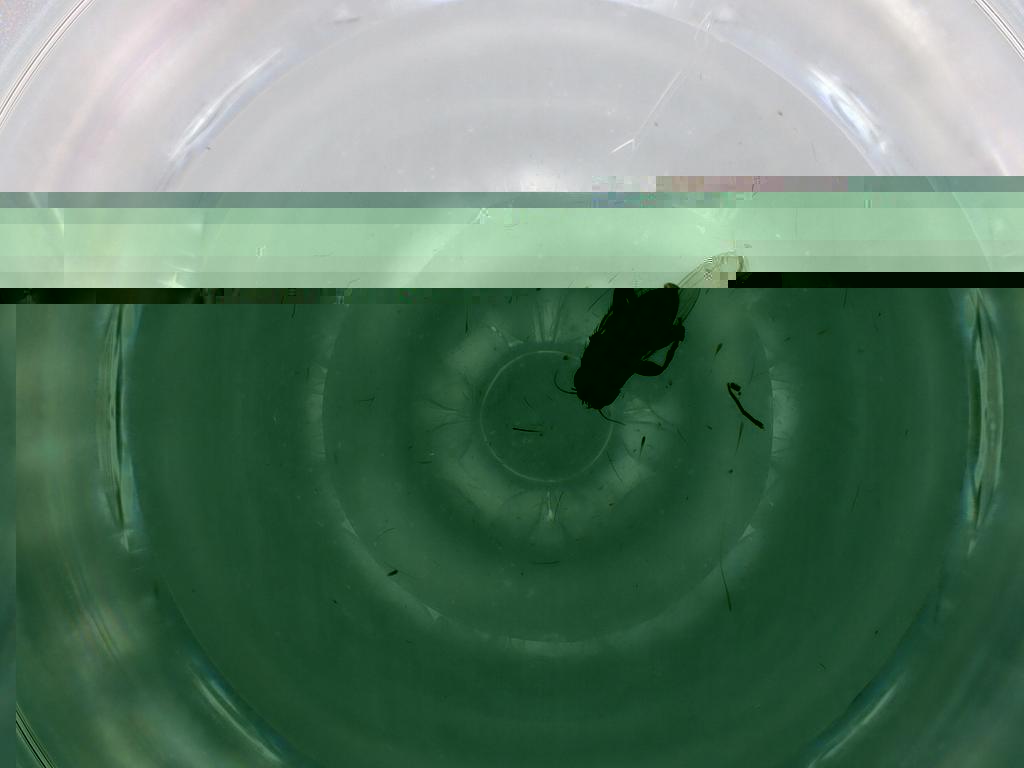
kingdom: Animalia
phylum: Arthropoda
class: Insecta
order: Diptera
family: Phoridae
